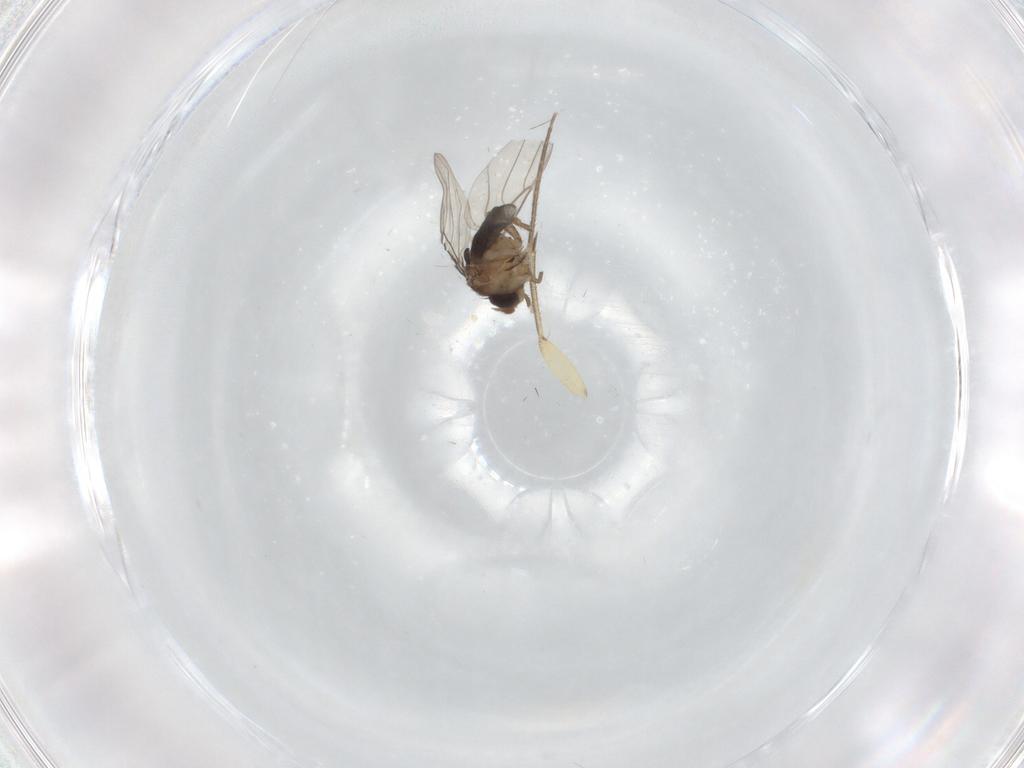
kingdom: Animalia
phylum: Arthropoda
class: Insecta
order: Diptera
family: Phoridae
